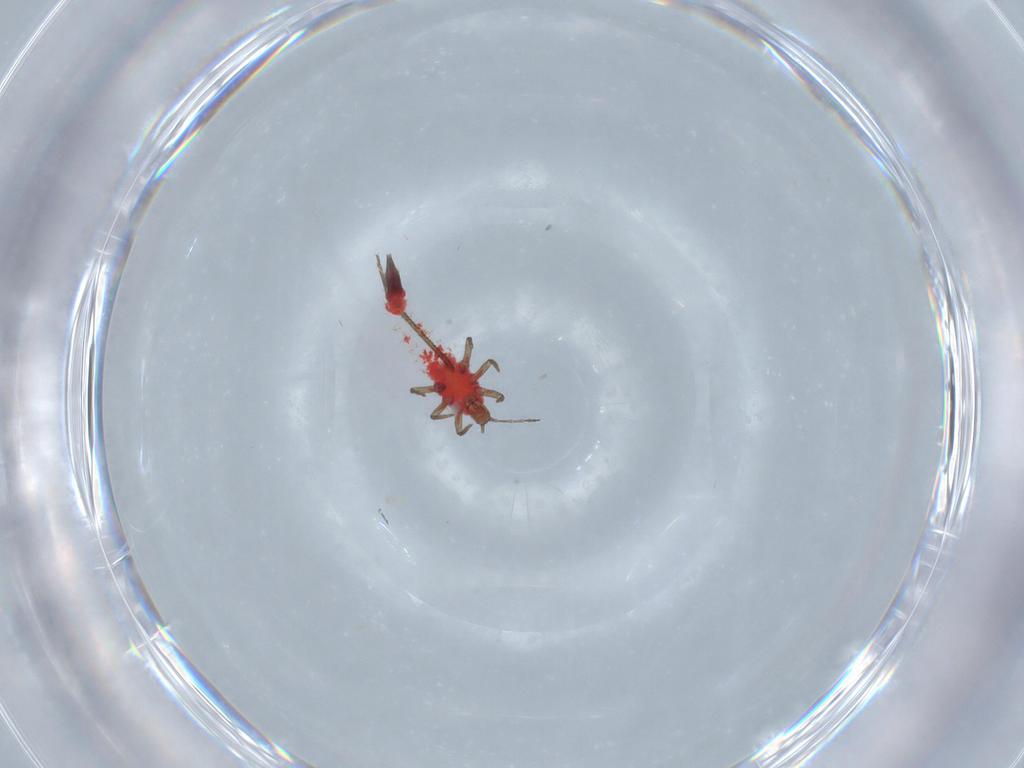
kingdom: Animalia
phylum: Arthropoda
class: Insecta
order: Thysanoptera
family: Phlaeothripidae
